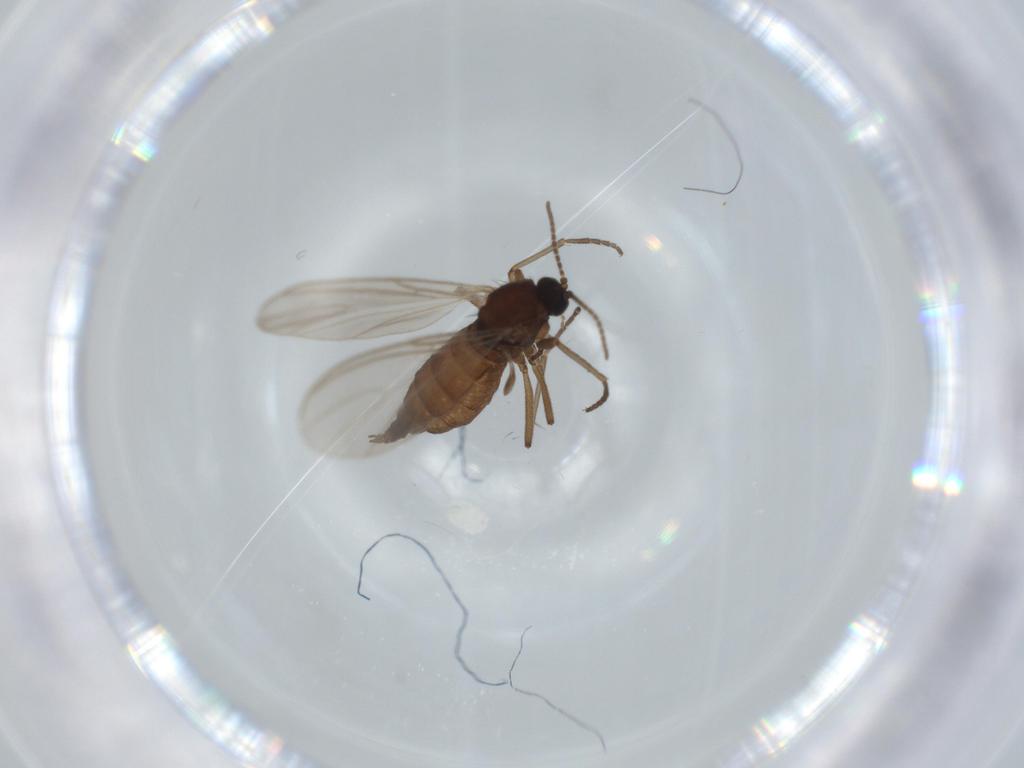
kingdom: Animalia
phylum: Arthropoda
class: Insecta
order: Diptera
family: Sciaridae
